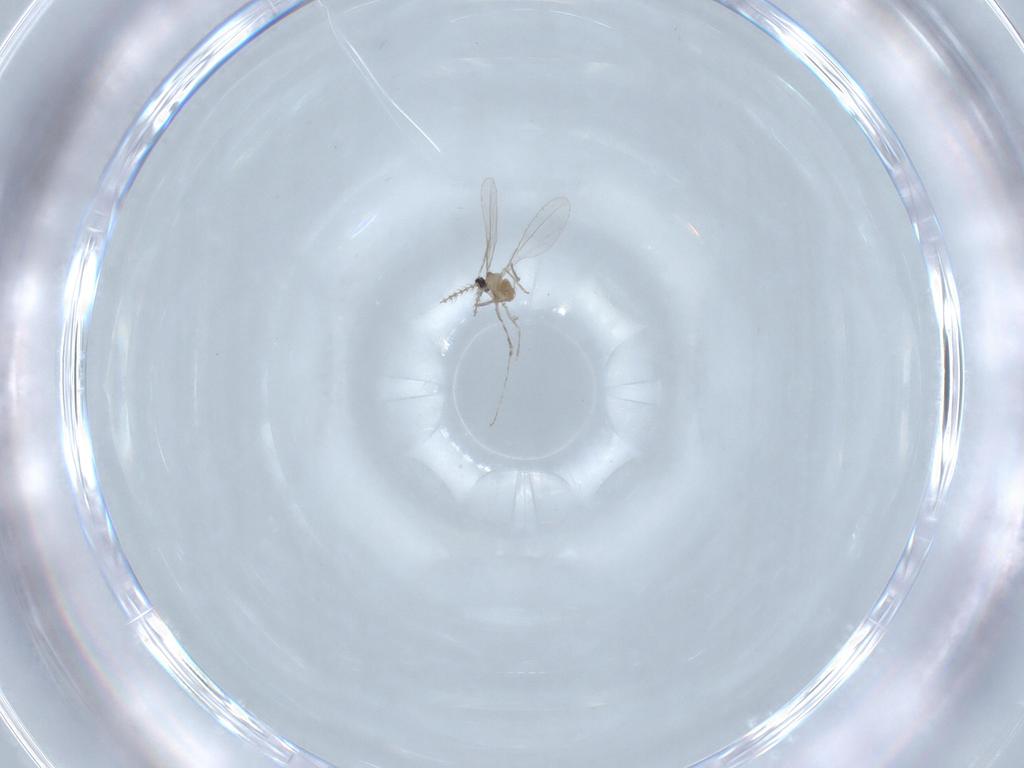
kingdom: Animalia
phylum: Arthropoda
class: Insecta
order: Diptera
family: Cecidomyiidae
